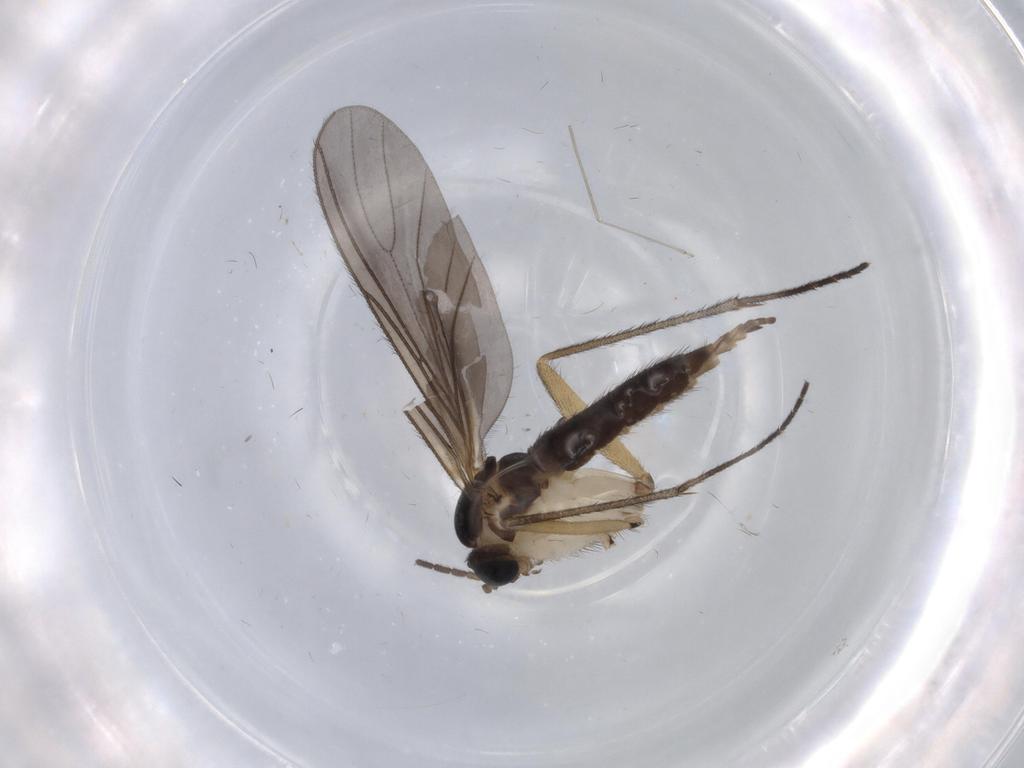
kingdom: Animalia
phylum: Arthropoda
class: Insecta
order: Diptera
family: Sciaridae
